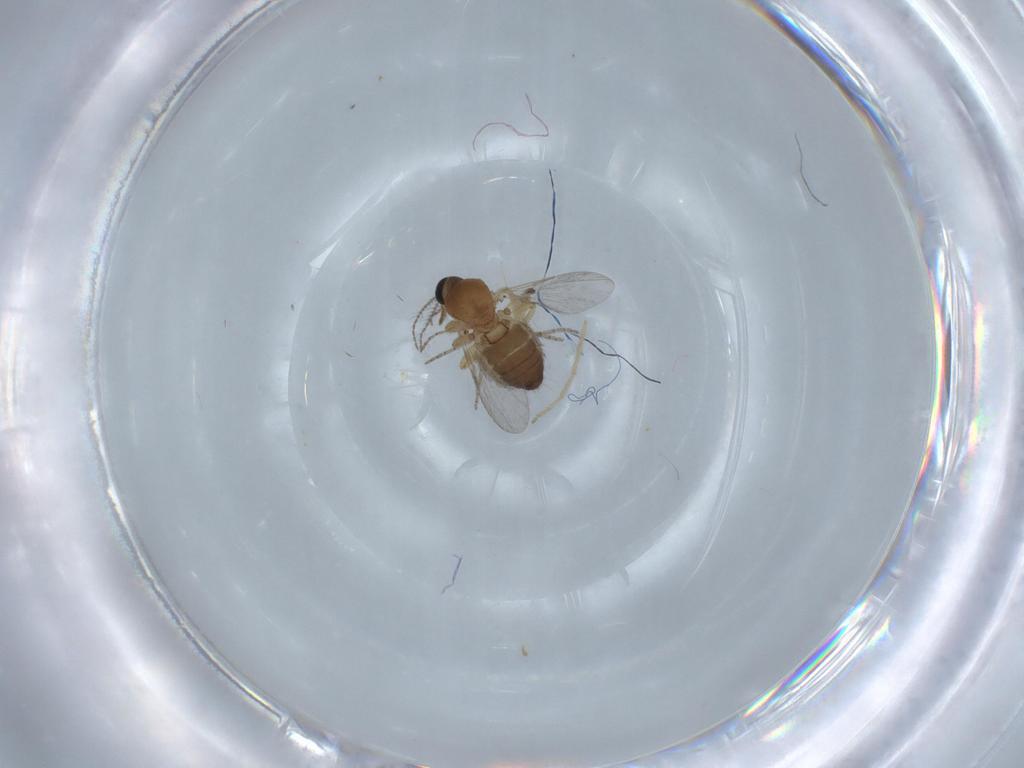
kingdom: Animalia
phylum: Arthropoda
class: Insecta
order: Diptera
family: Ceratopogonidae
